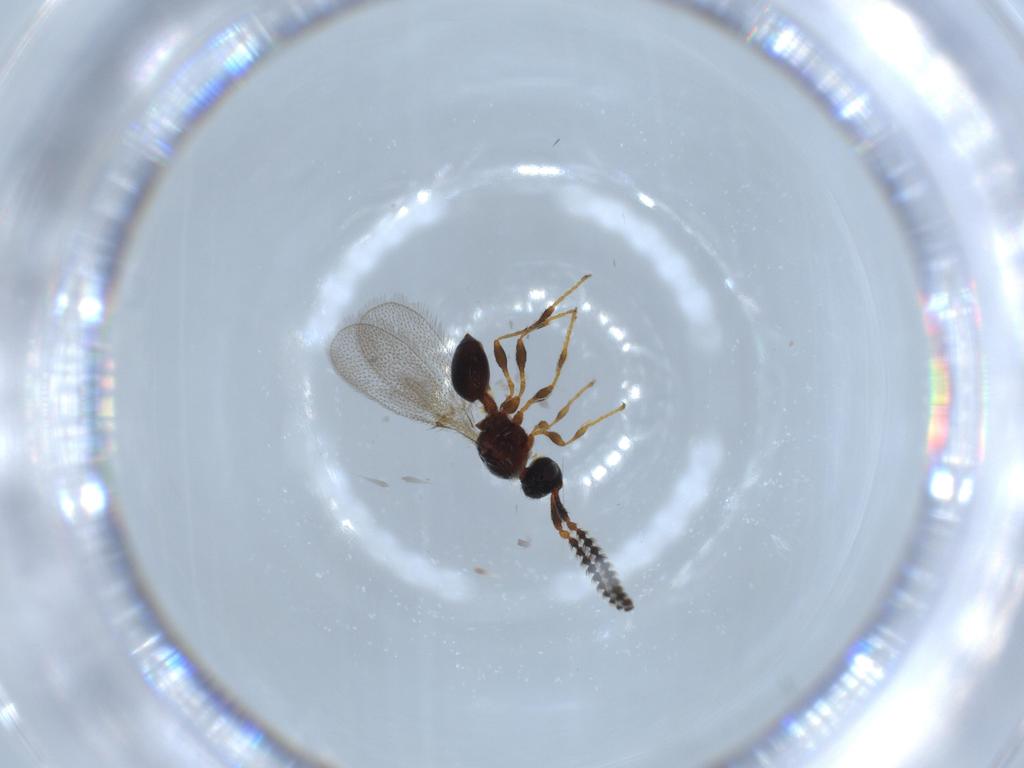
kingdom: Animalia
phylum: Arthropoda
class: Insecta
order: Hymenoptera
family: Diapriidae
